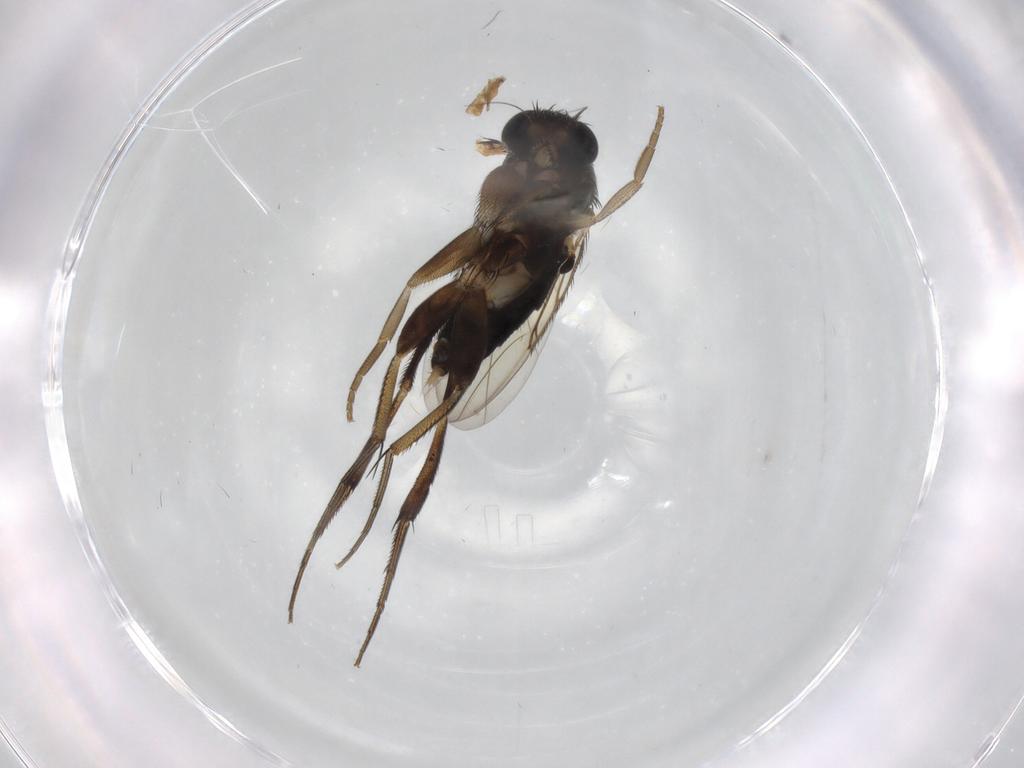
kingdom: Animalia
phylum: Arthropoda
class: Insecta
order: Diptera
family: Phoridae
